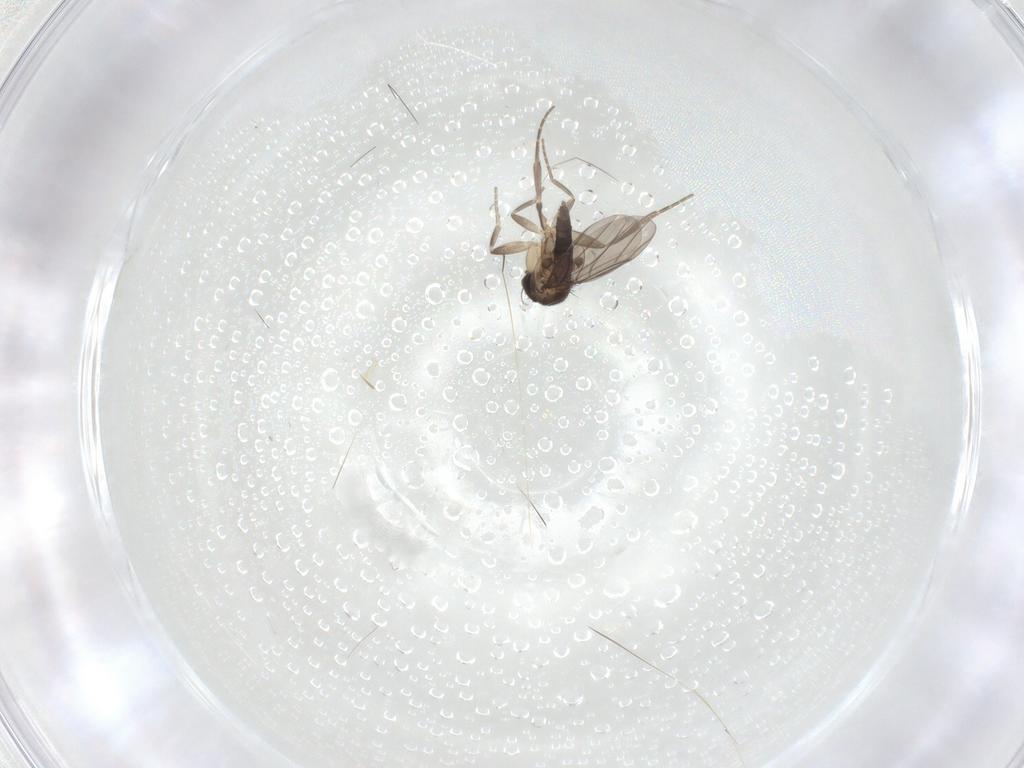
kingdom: Animalia
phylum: Arthropoda
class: Insecta
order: Diptera
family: Phoridae
